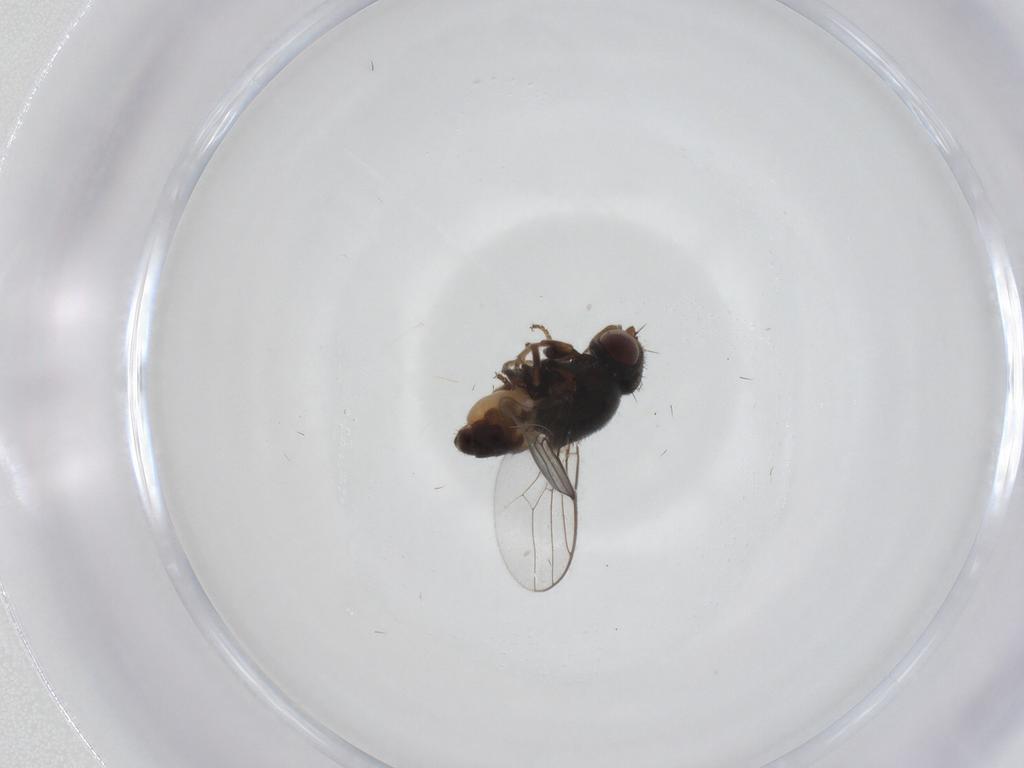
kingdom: Animalia
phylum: Arthropoda
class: Insecta
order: Diptera
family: Chloropidae
